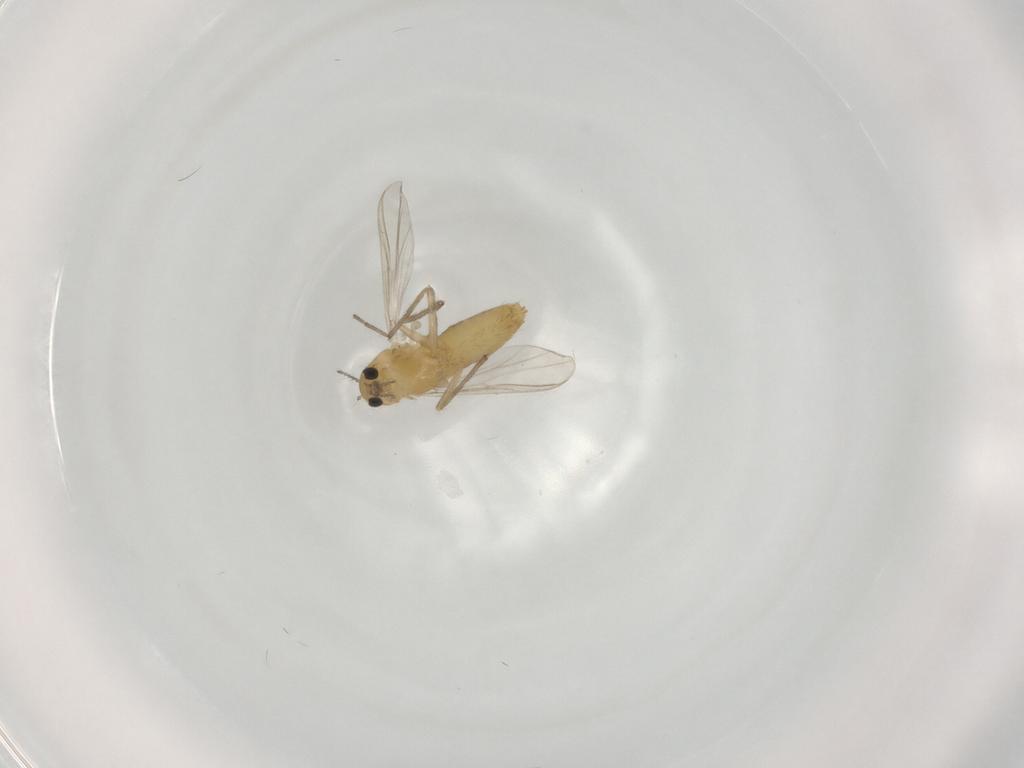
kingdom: Animalia
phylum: Arthropoda
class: Insecta
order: Diptera
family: Chironomidae
